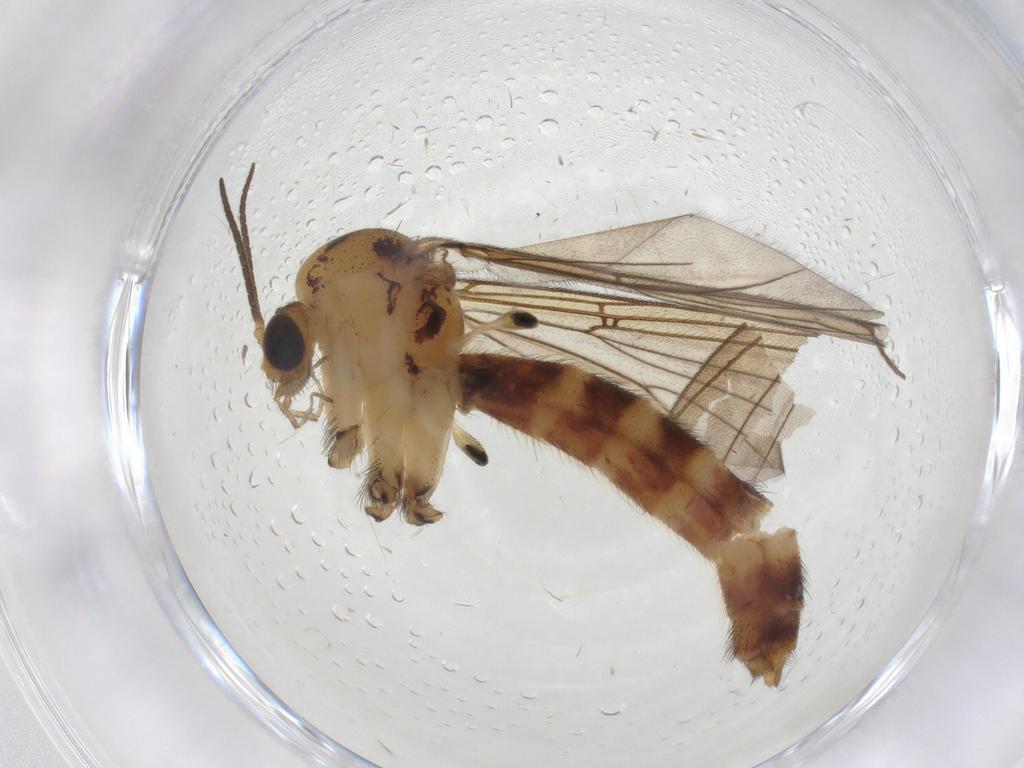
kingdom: Animalia
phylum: Arthropoda
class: Insecta
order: Diptera
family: Mycetophilidae
